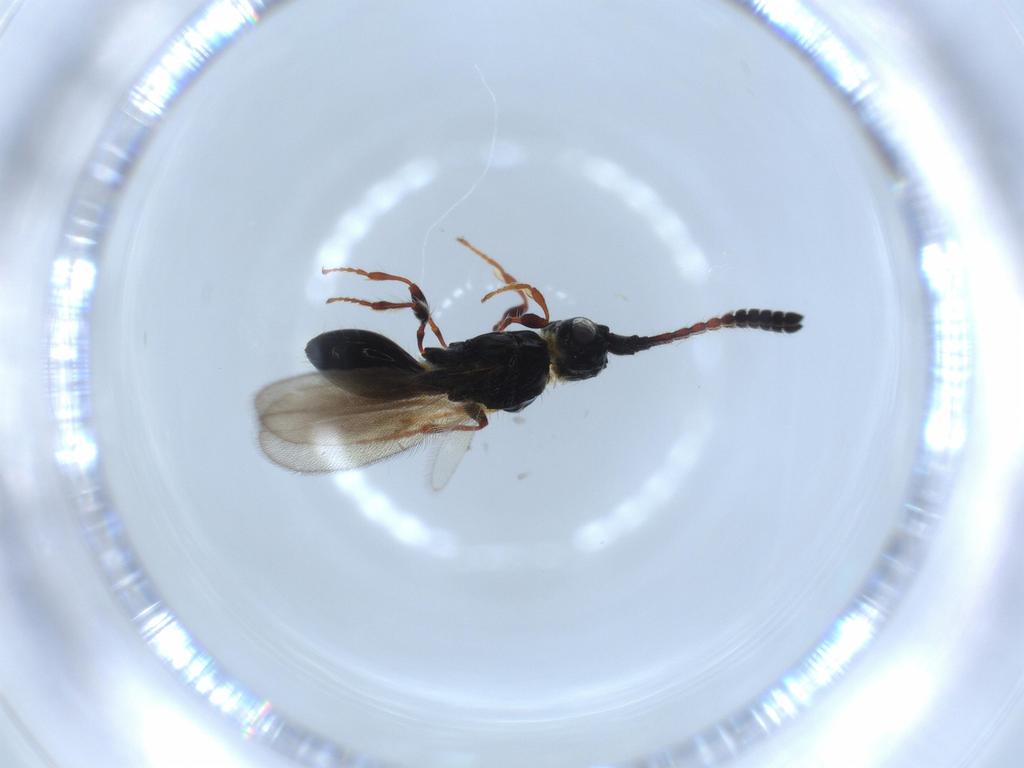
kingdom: Animalia
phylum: Arthropoda
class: Insecta
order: Hymenoptera
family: Diapriidae
